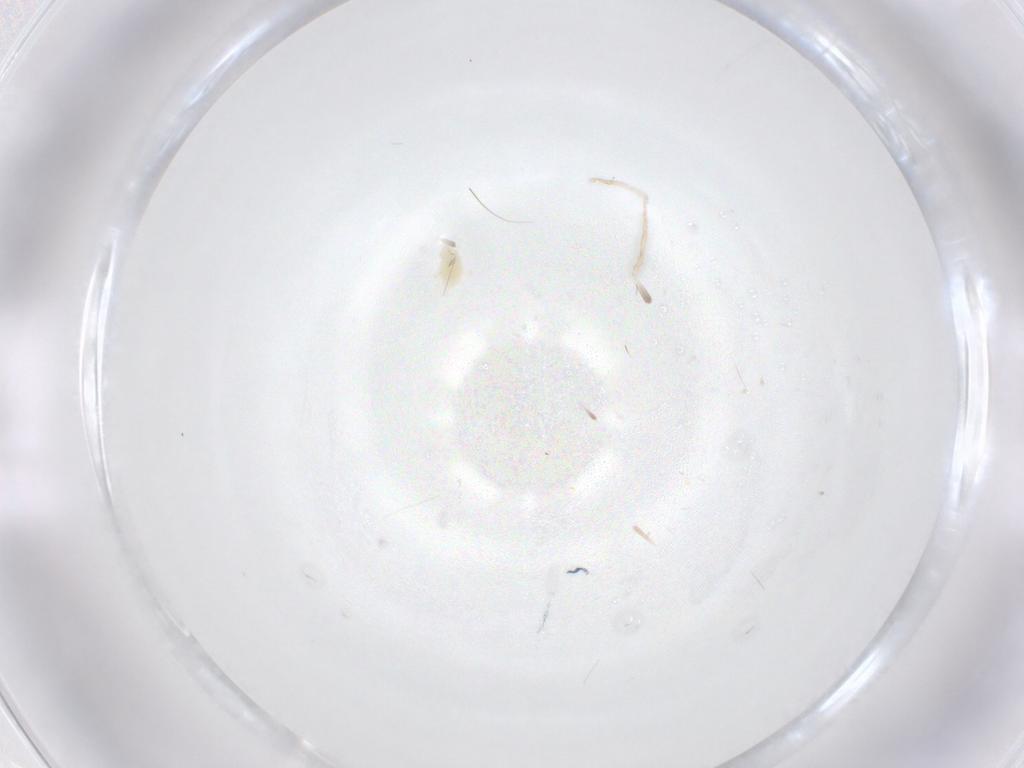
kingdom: Animalia
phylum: Arthropoda
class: Arachnida
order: Trombidiformes
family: Tetranychidae
